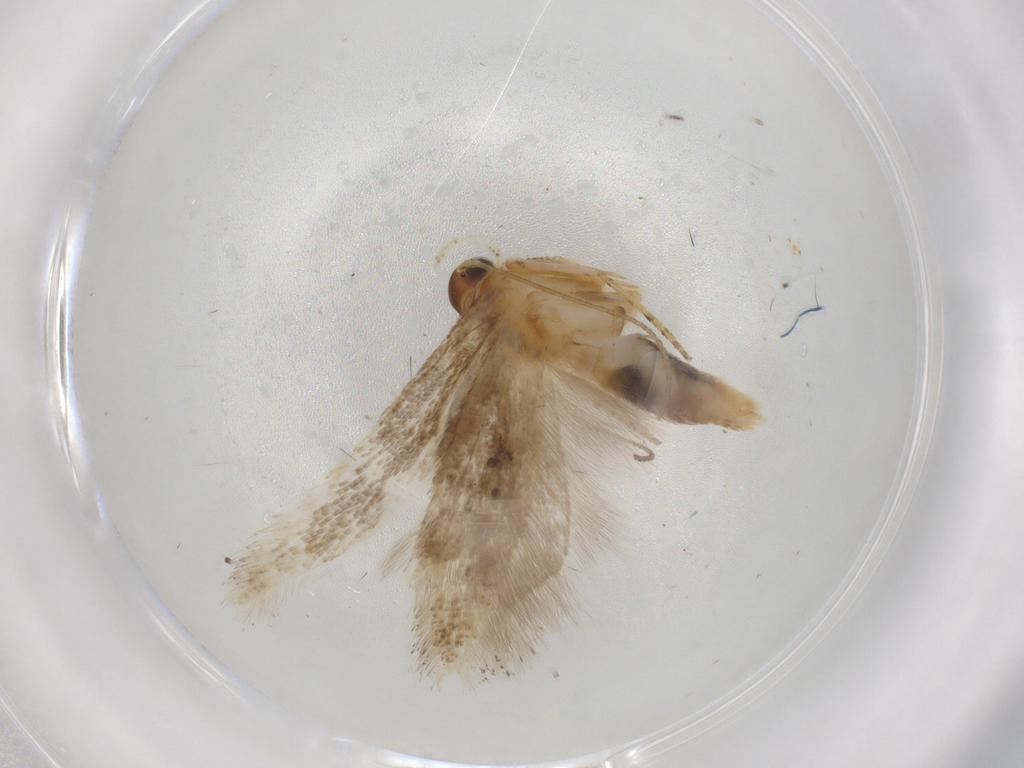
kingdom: Animalia
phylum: Arthropoda
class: Insecta
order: Lepidoptera
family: Gelechiidae
